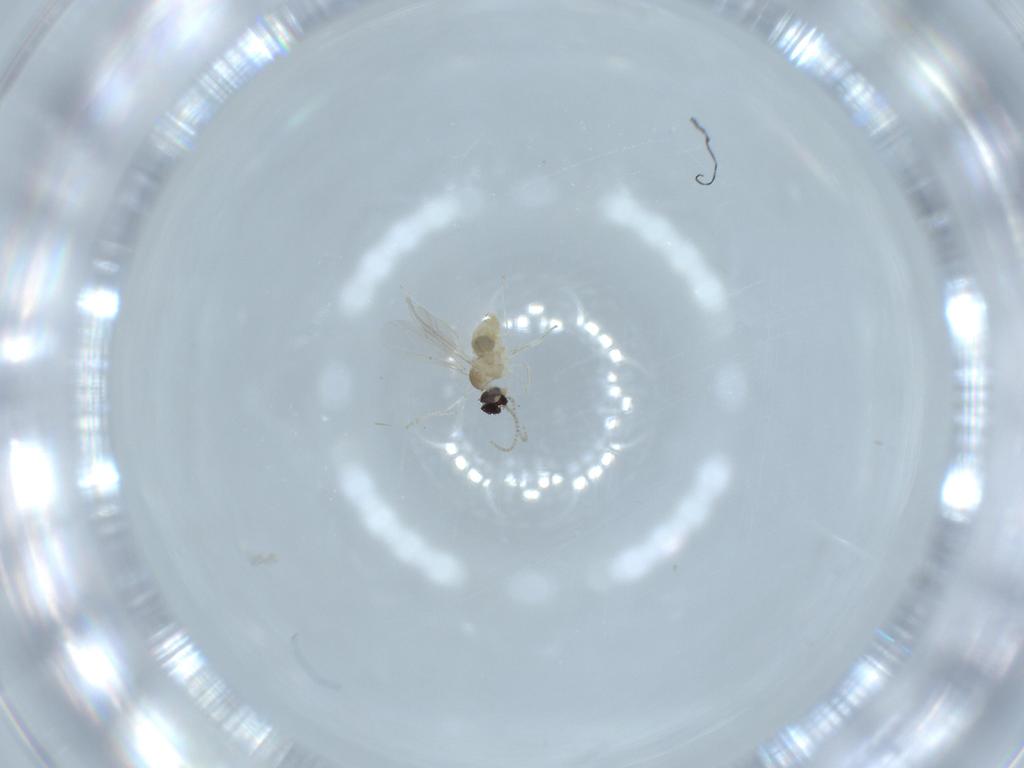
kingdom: Animalia
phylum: Arthropoda
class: Insecta
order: Diptera
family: Cecidomyiidae
